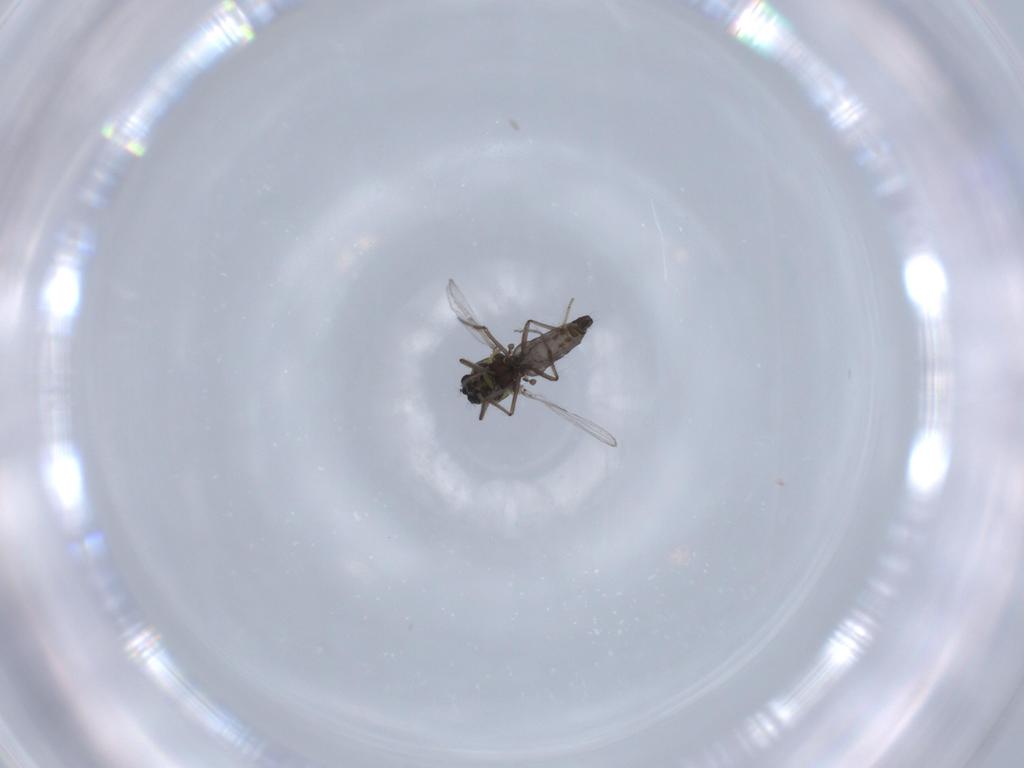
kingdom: Animalia
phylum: Arthropoda
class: Insecta
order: Diptera
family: Ceratopogonidae
